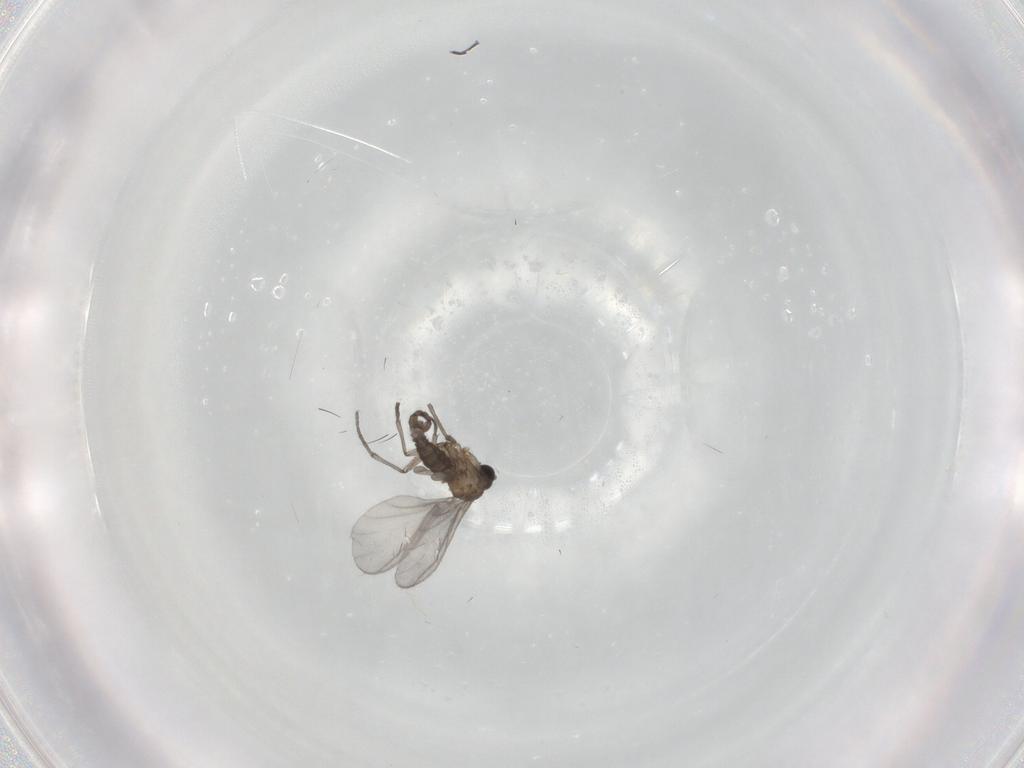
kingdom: Animalia
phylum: Arthropoda
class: Insecta
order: Diptera
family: Sciaridae
